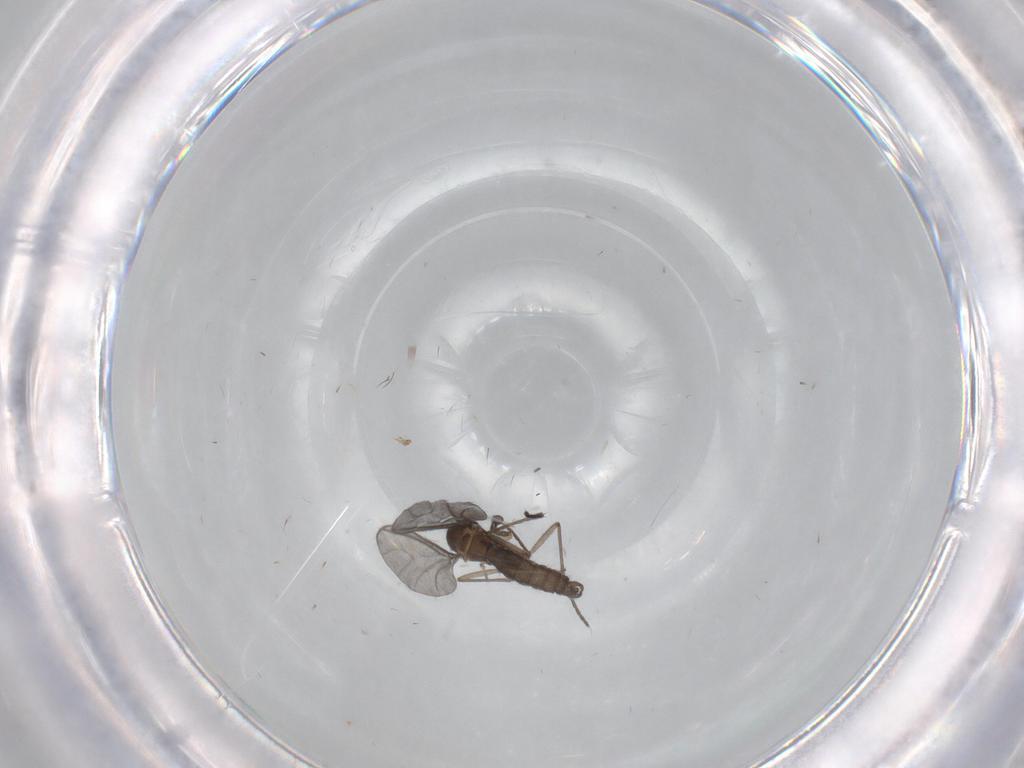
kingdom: Animalia
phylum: Arthropoda
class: Insecta
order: Diptera
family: Sciaridae
